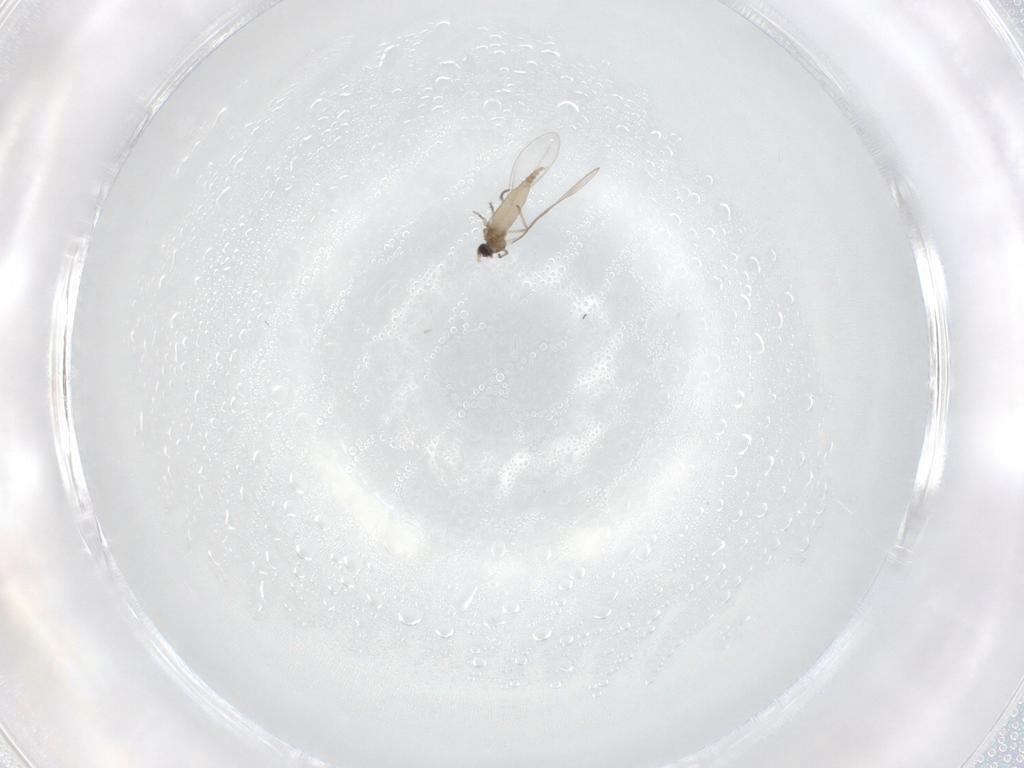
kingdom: Animalia
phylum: Arthropoda
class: Insecta
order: Diptera
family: Cecidomyiidae
